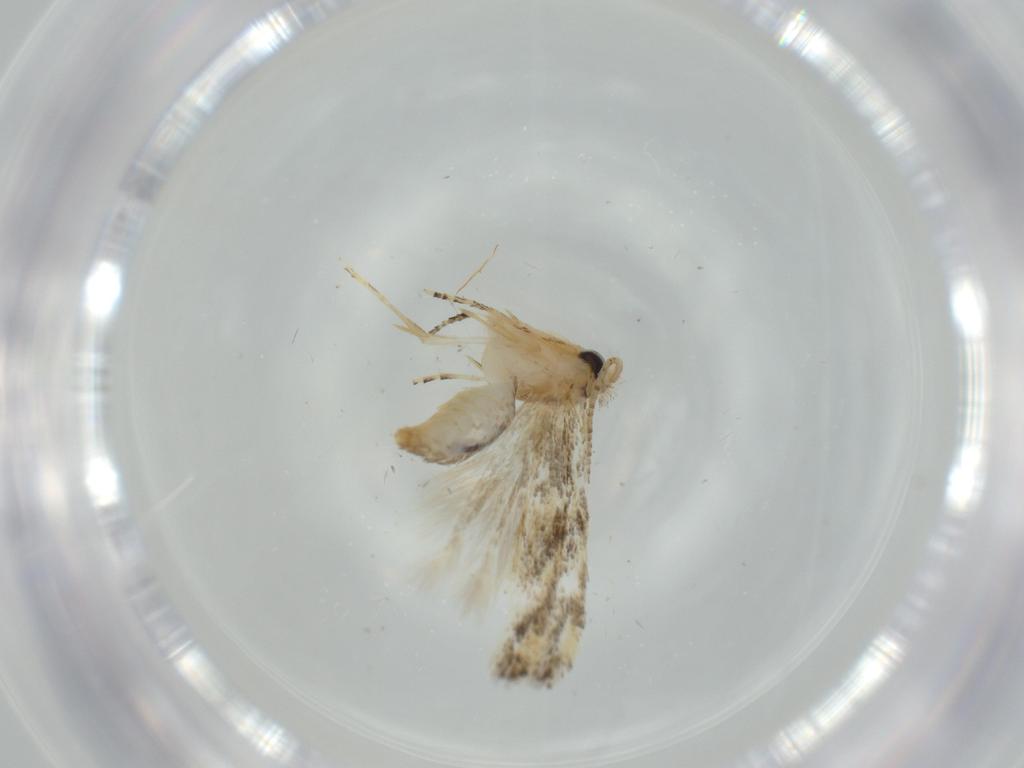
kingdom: Animalia
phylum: Arthropoda
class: Insecta
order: Lepidoptera
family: Bucculatricidae
